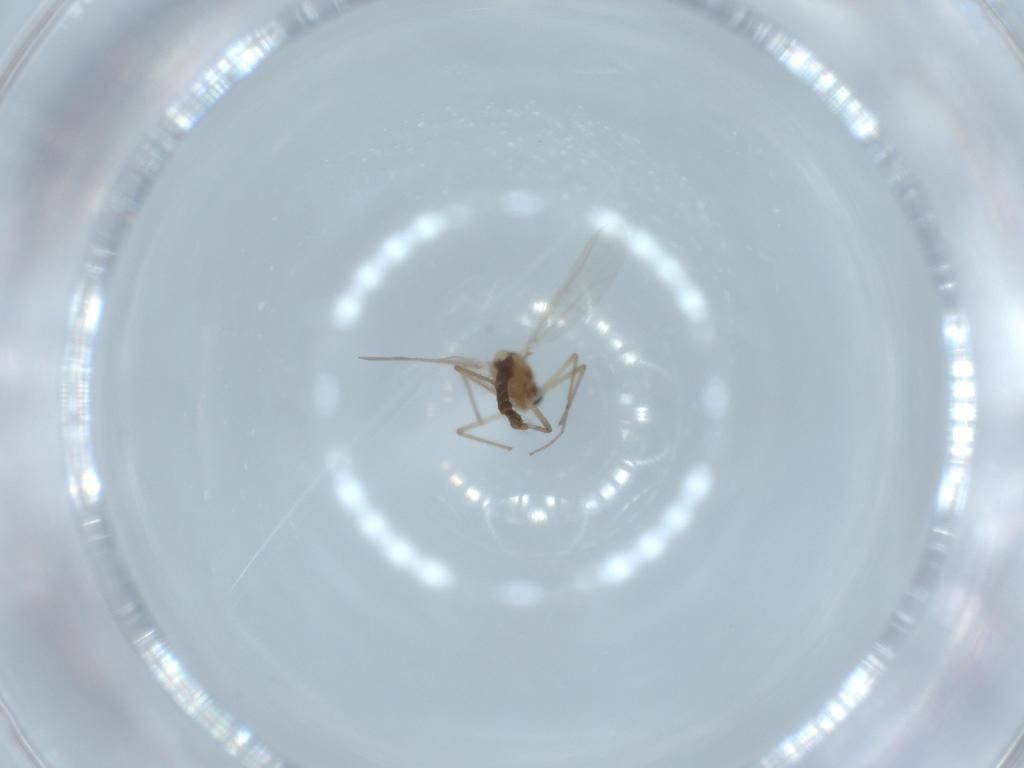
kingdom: Animalia
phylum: Arthropoda
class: Insecta
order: Diptera
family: Chironomidae
